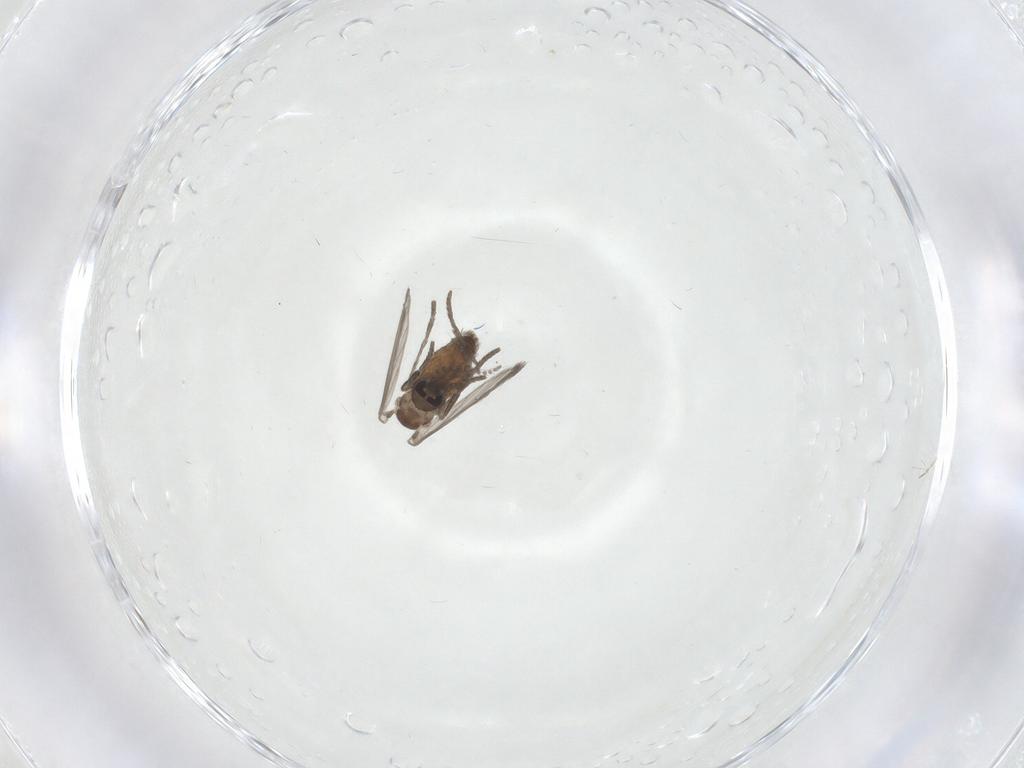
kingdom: Animalia
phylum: Arthropoda
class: Insecta
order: Diptera
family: Chironomidae
